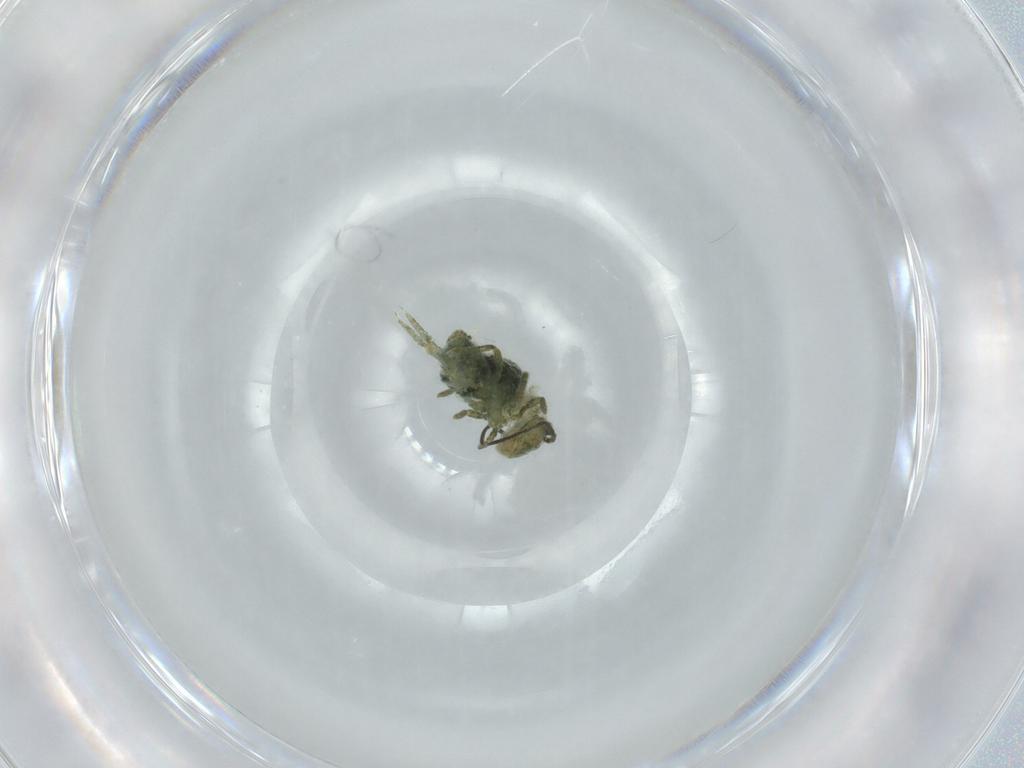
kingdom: Animalia
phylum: Arthropoda
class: Collembola
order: Symphypleona
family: Sminthuridae
